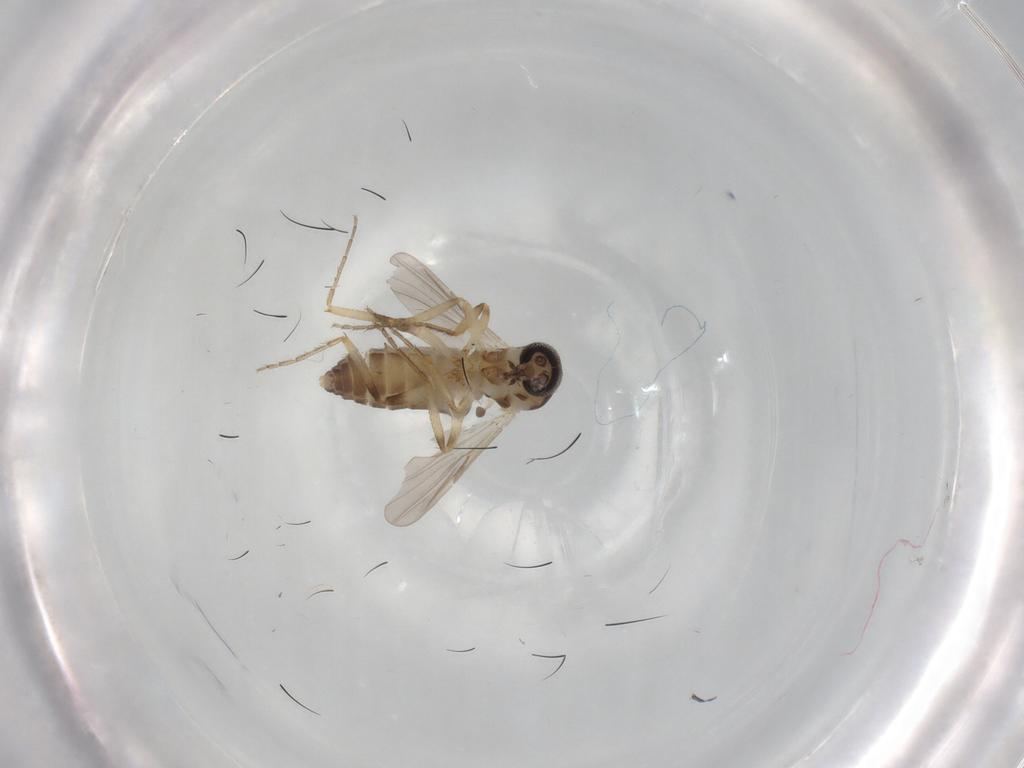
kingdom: Animalia
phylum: Arthropoda
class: Insecta
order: Diptera
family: Ceratopogonidae
